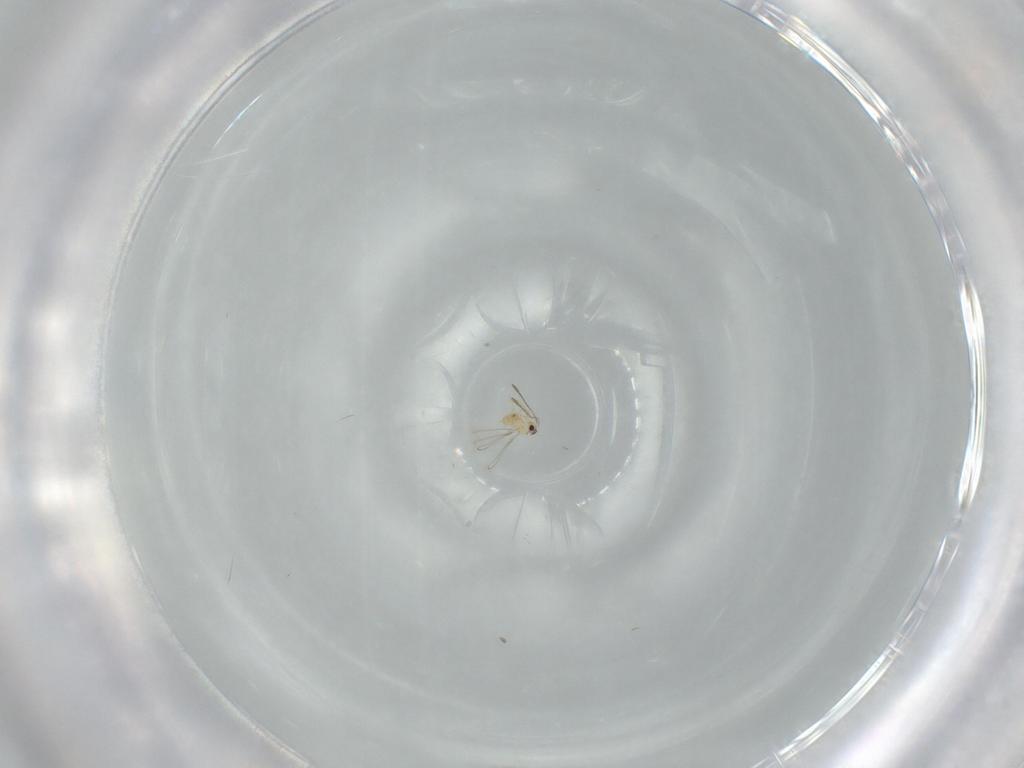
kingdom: Animalia
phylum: Arthropoda
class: Insecta
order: Hymenoptera
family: Mymaridae
